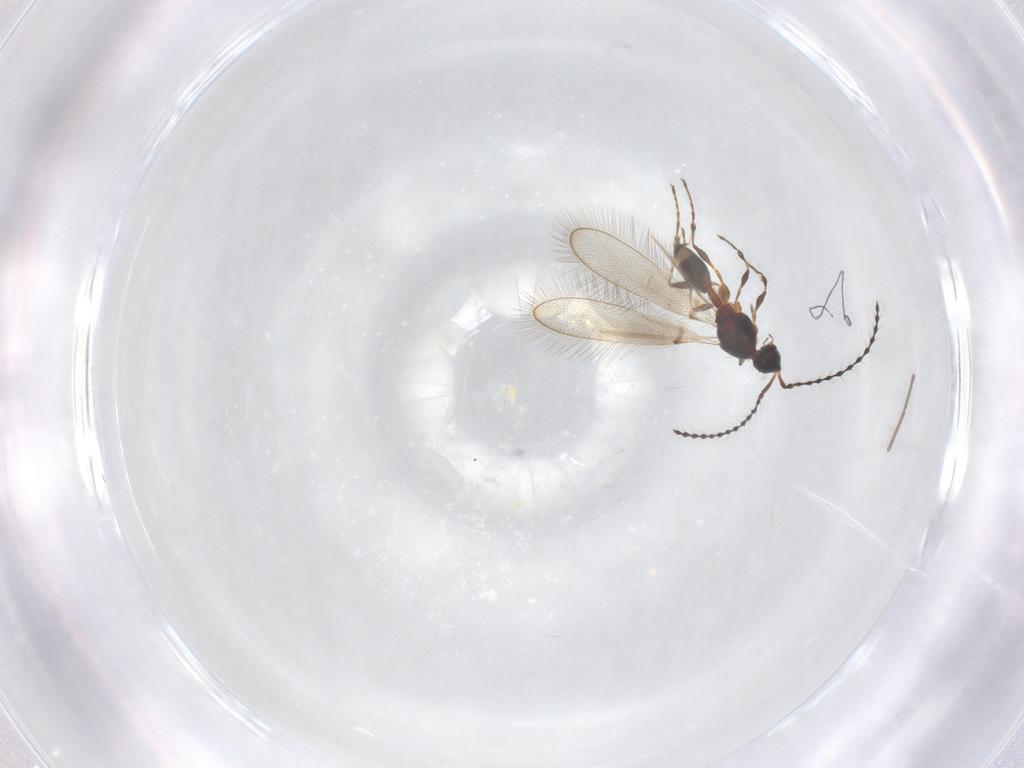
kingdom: Animalia
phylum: Arthropoda
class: Insecta
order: Hymenoptera
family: Diapriidae
